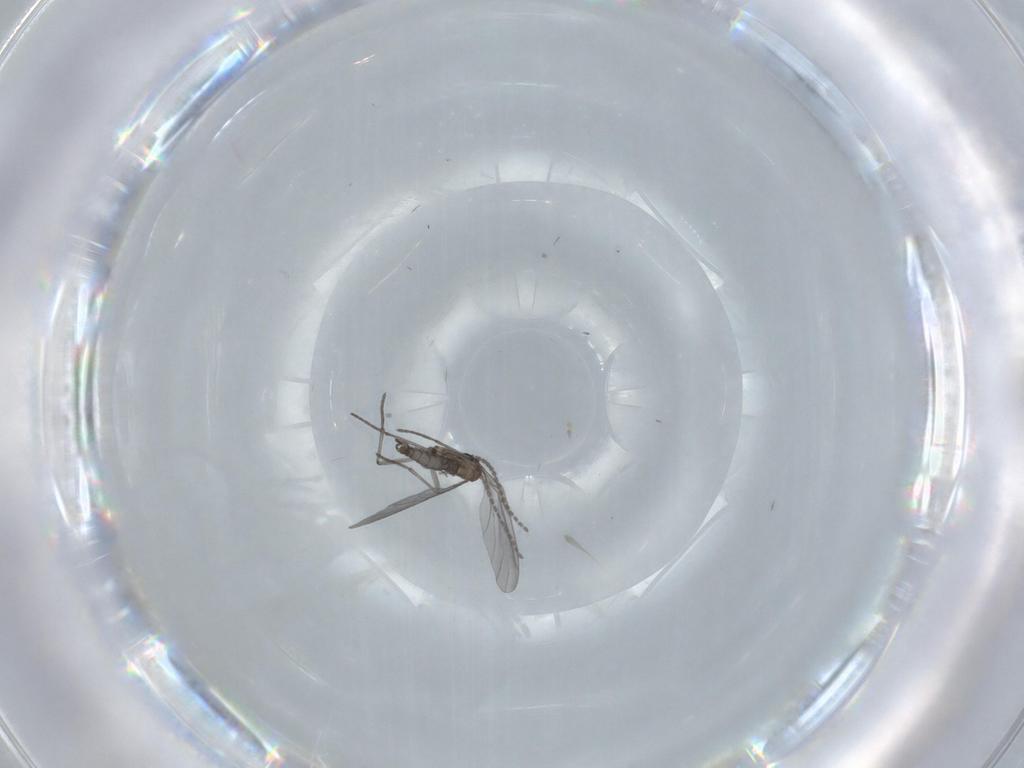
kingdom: Animalia
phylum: Arthropoda
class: Insecta
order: Diptera
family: Sciaridae
